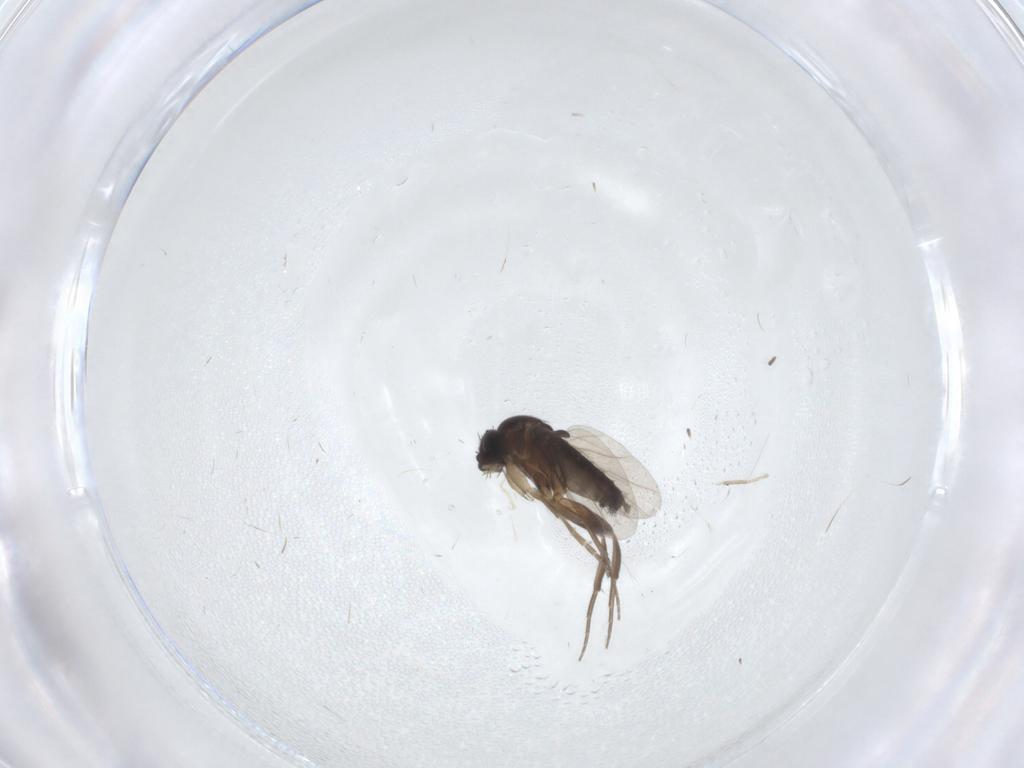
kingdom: Animalia
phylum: Arthropoda
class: Insecta
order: Diptera
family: Phoridae
